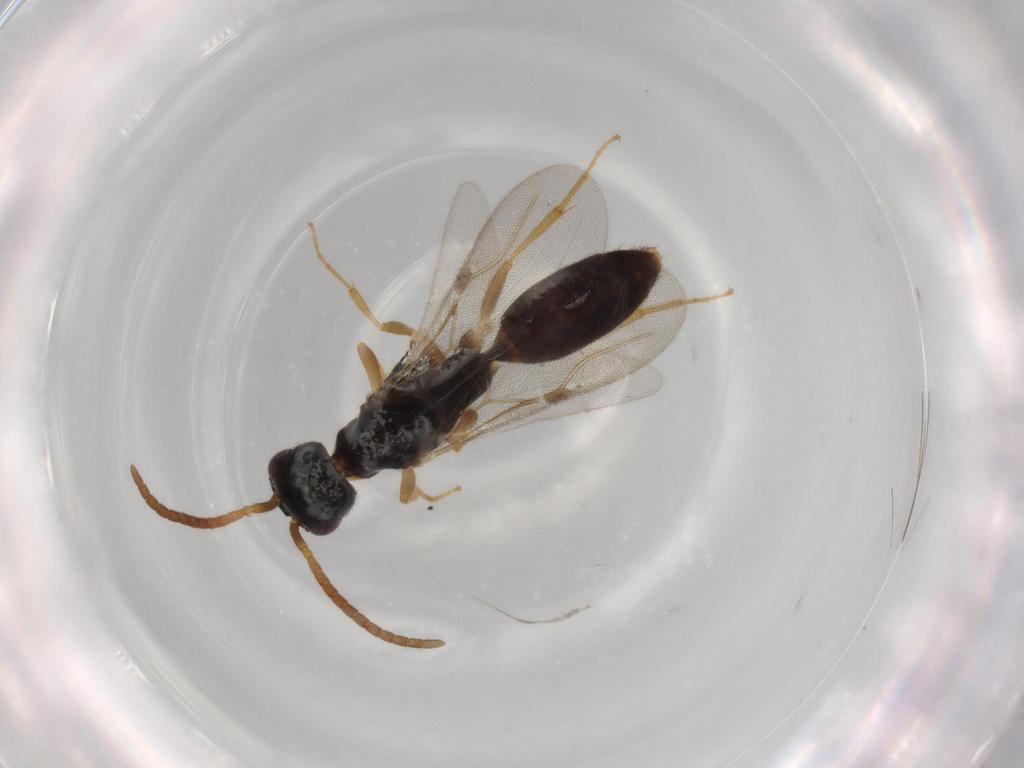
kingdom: Animalia
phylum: Arthropoda
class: Insecta
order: Hymenoptera
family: Bethylidae
